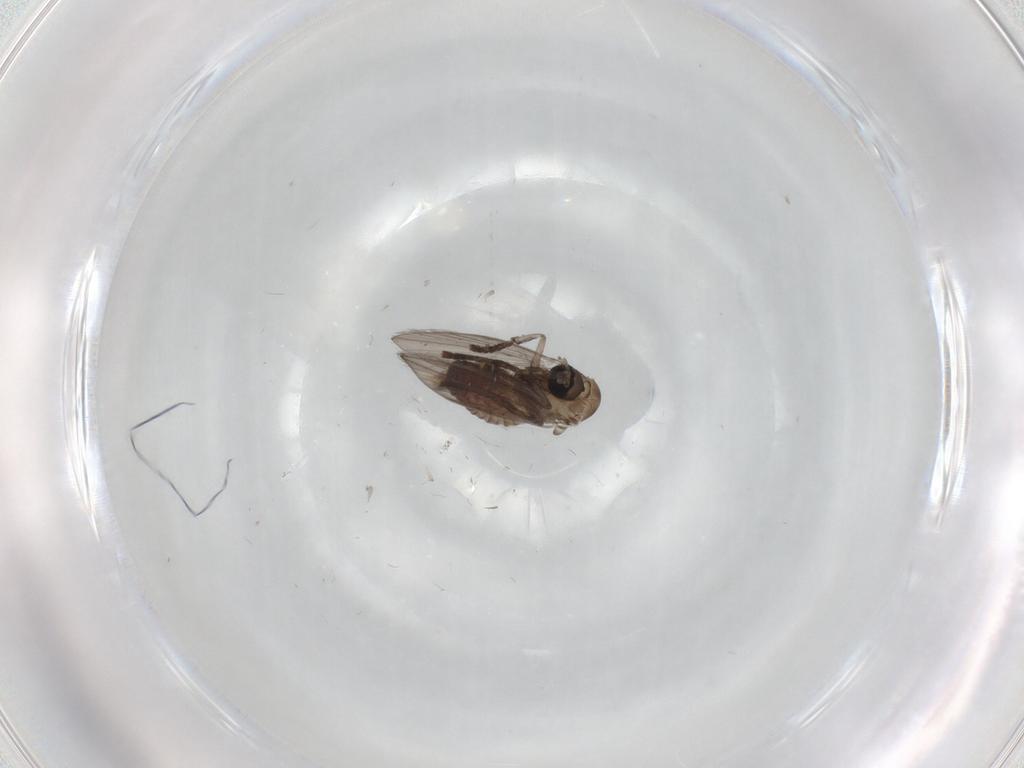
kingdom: Animalia
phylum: Arthropoda
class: Insecta
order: Diptera
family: Psychodidae
